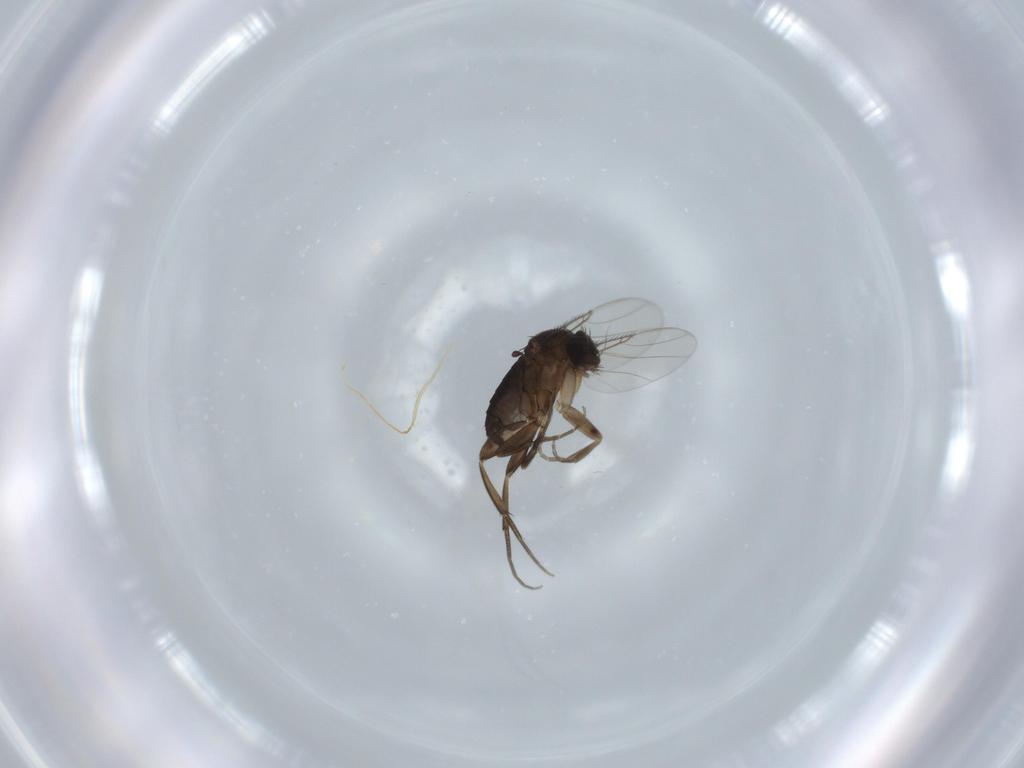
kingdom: Animalia
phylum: Arthropoda
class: Insecta
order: Diptera
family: Phoridae
